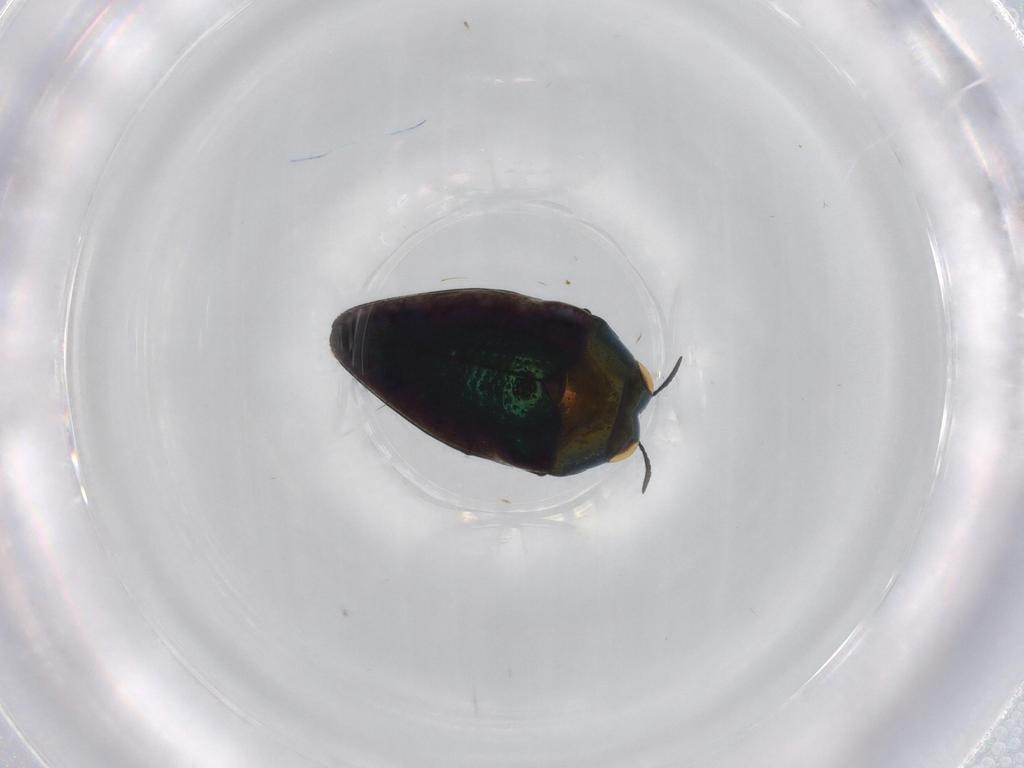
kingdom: Animalia
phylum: Arthropoda
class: Insecta
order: Coleoptera
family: Buprestidae
